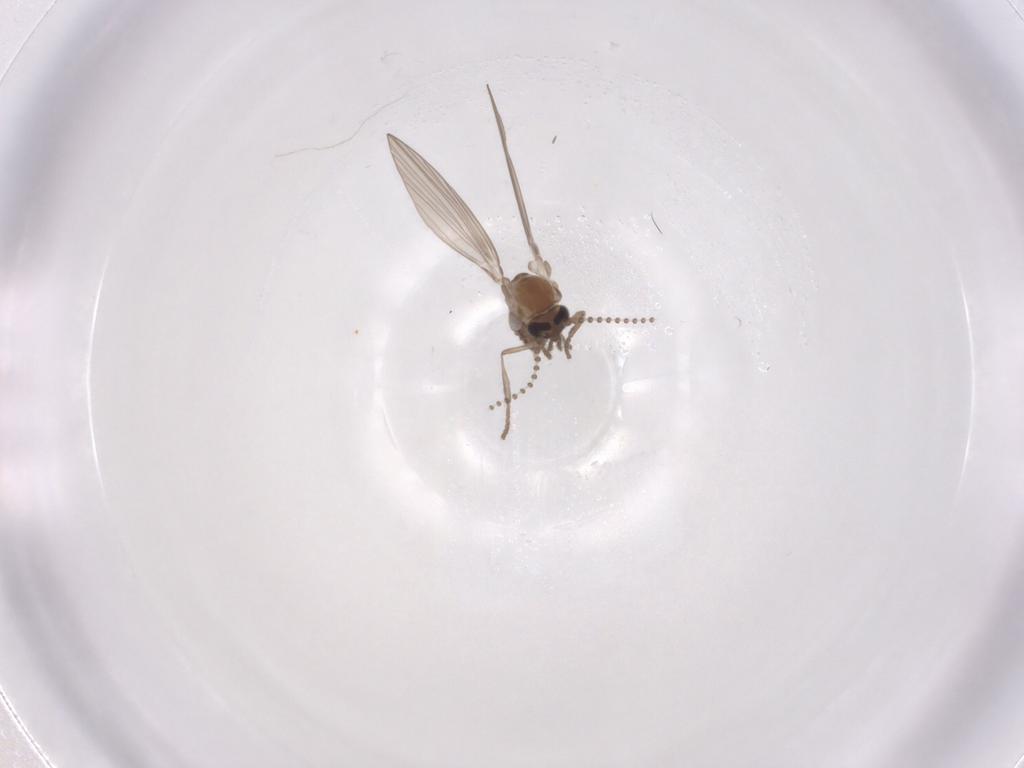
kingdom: Animalia
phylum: Arthropoda
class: Insecta
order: Diptera
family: Psychodidae
